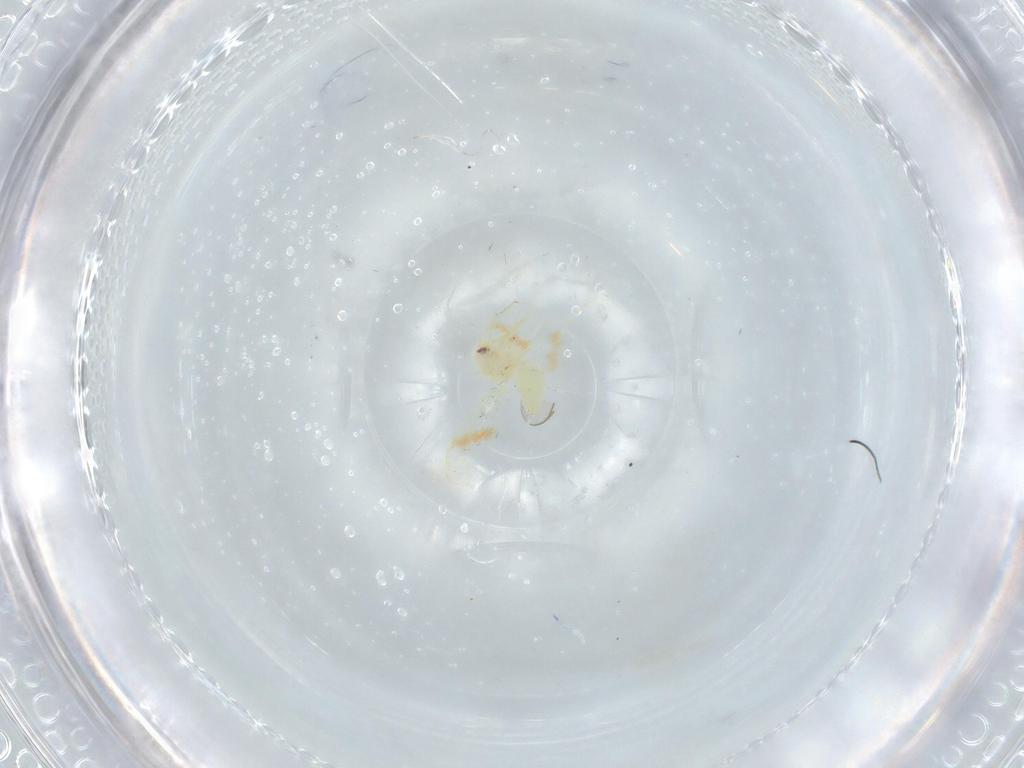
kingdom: Animalia
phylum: Arthropoda
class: Insecta
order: Hemiptera
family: Aleyrodidae
